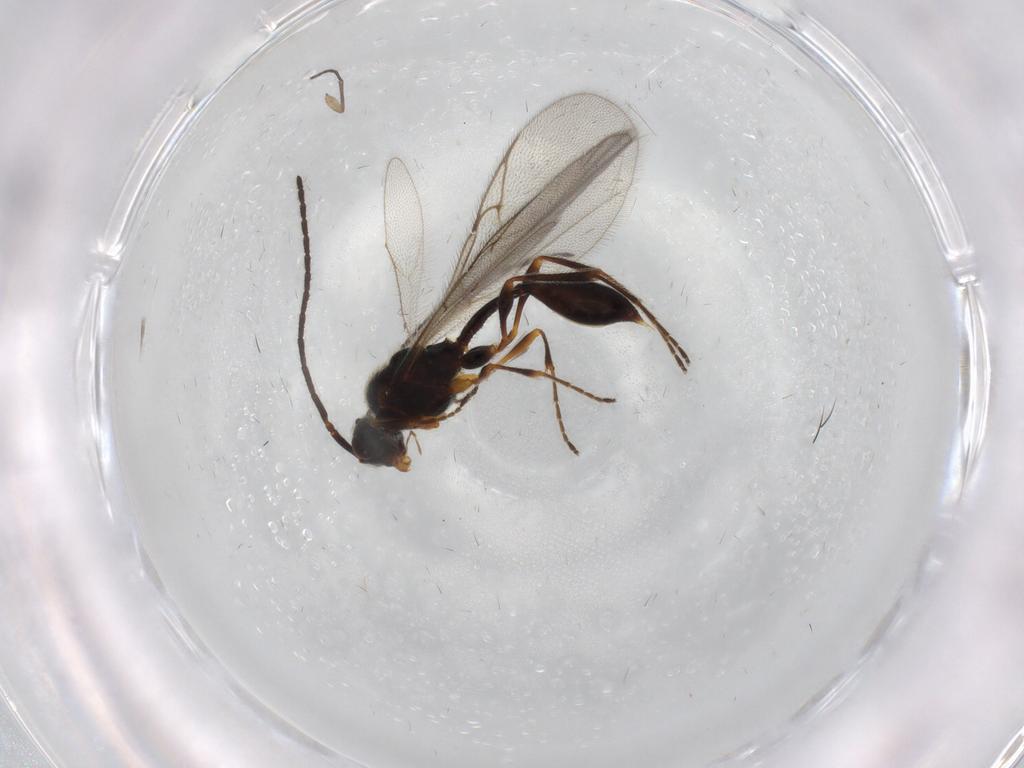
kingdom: Animalia
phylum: Arthropoda
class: Insecta
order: Hymenoptera
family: Diapriidae
